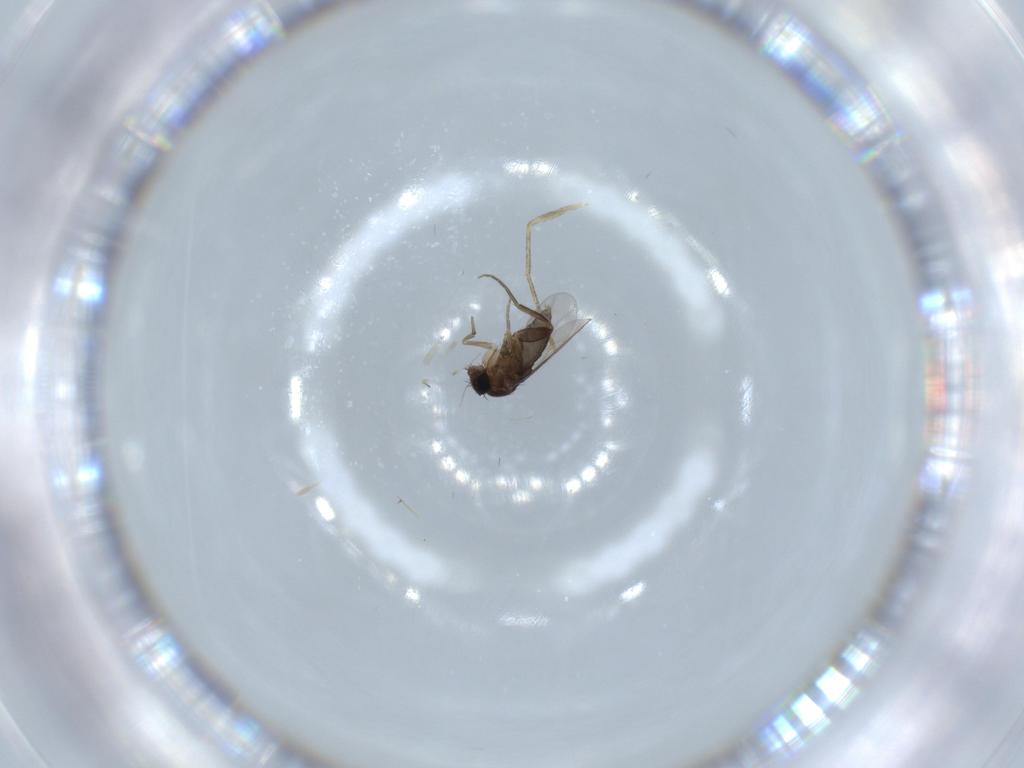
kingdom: Animalia
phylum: Arthropoda
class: Insecta
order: Diptera
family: Phoridae
